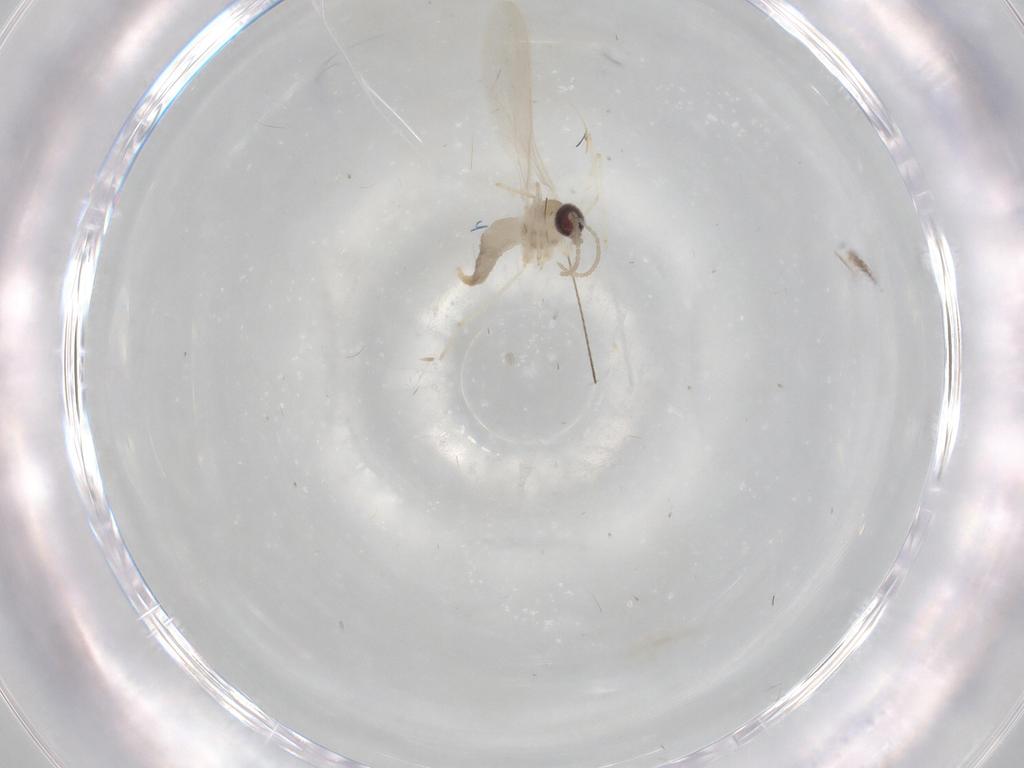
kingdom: Animalia
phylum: Arthropoda
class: Insecta
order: Diptera
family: Cecidomyiidae
